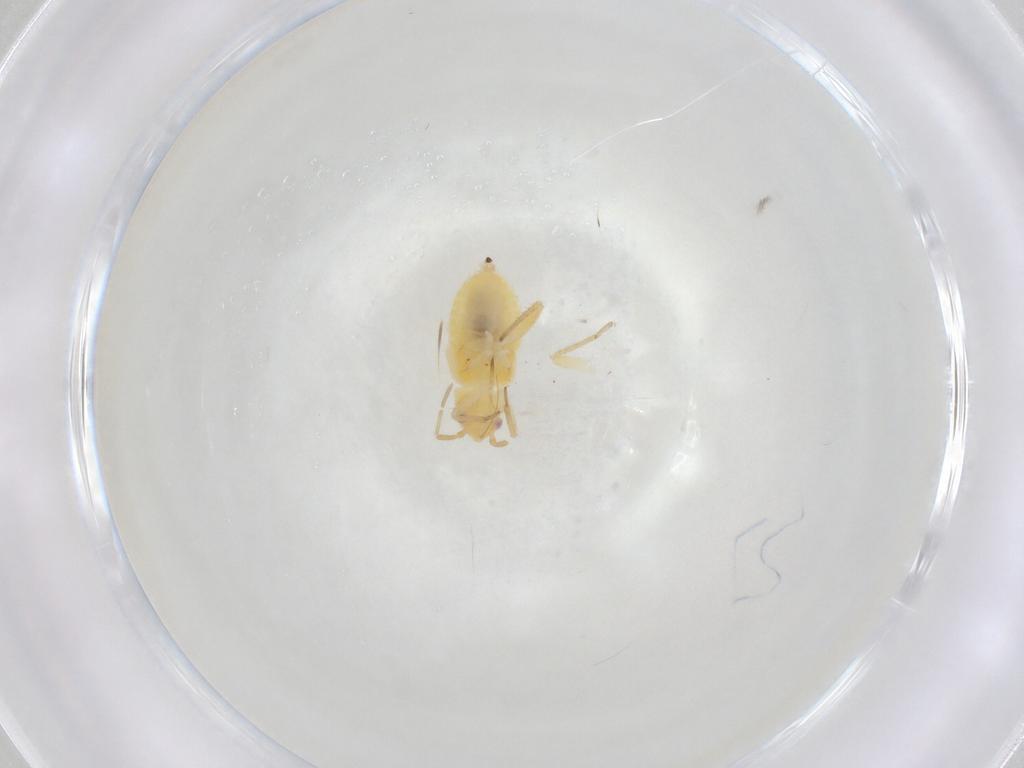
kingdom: Animalia
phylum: Arthropoda
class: Insecta
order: Hemiptera
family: Miridae
